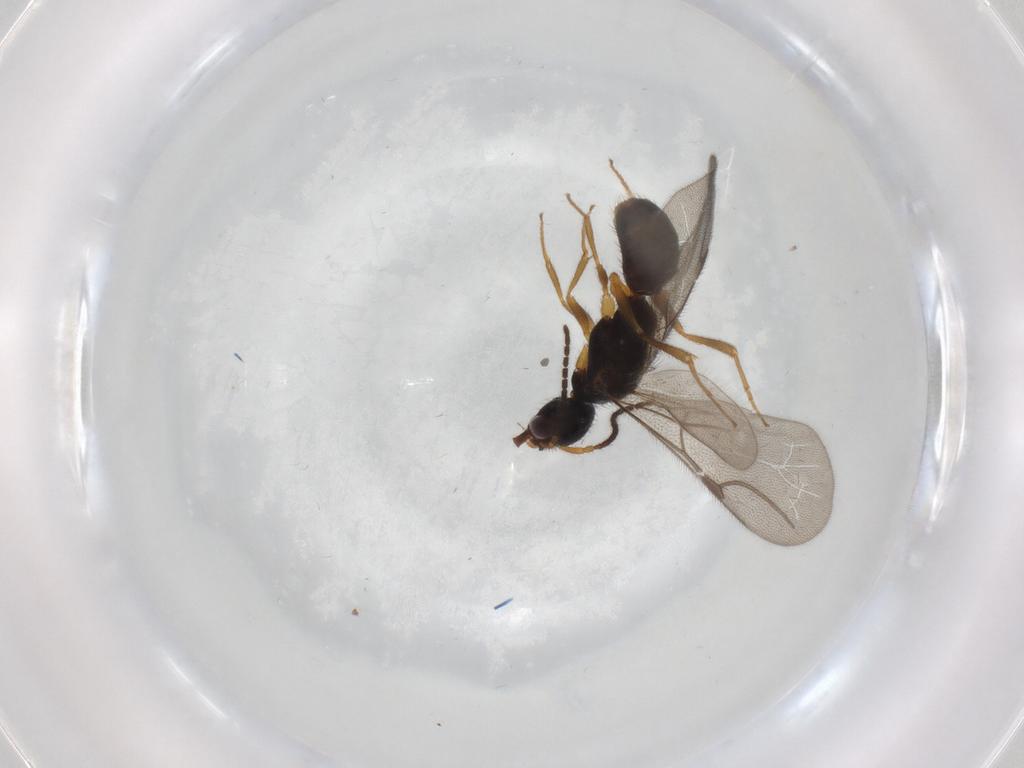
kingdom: Animalia
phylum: Arthropoda
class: Insecta
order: Hymenoptera
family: Bethylidae
